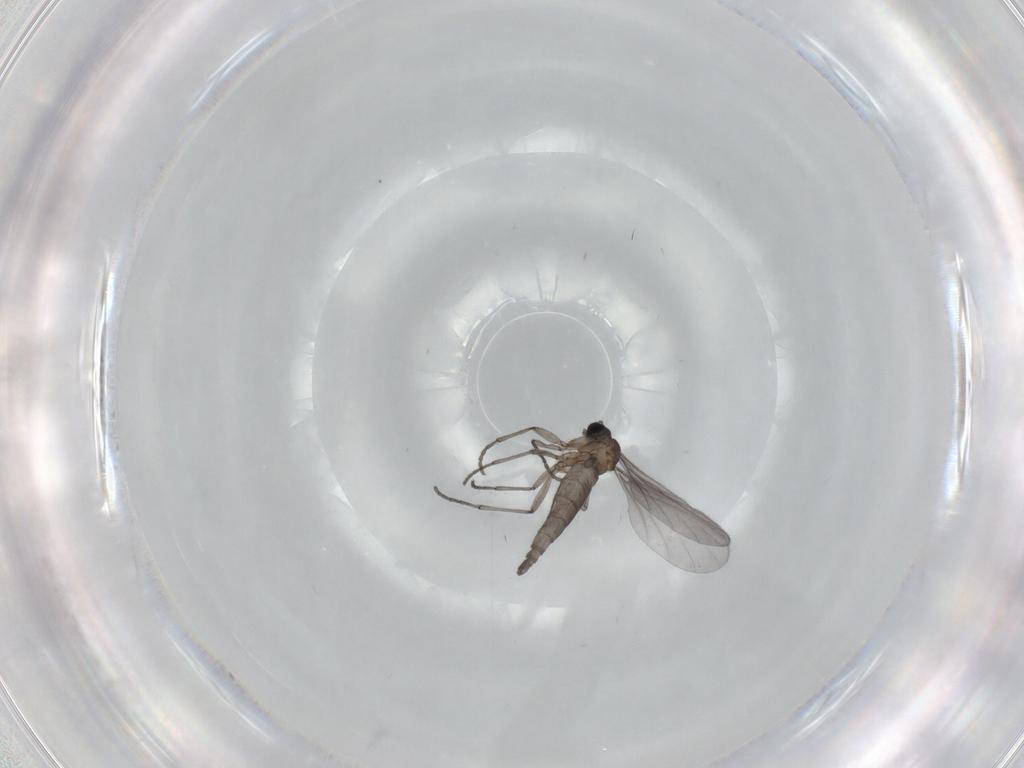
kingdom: Animalia
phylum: Arthropoda
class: Insecta
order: Diptera
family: Sciaridae
